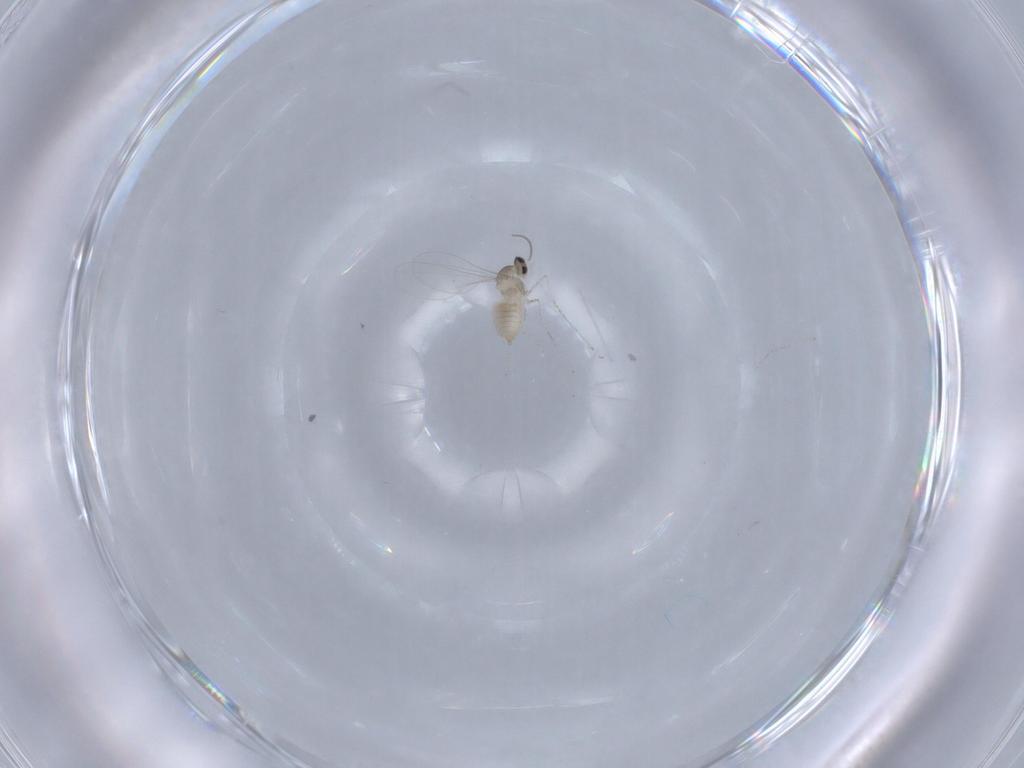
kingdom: Animalia
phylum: Arthropoda
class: Insecta
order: Diptera
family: Cecidomyiidae
